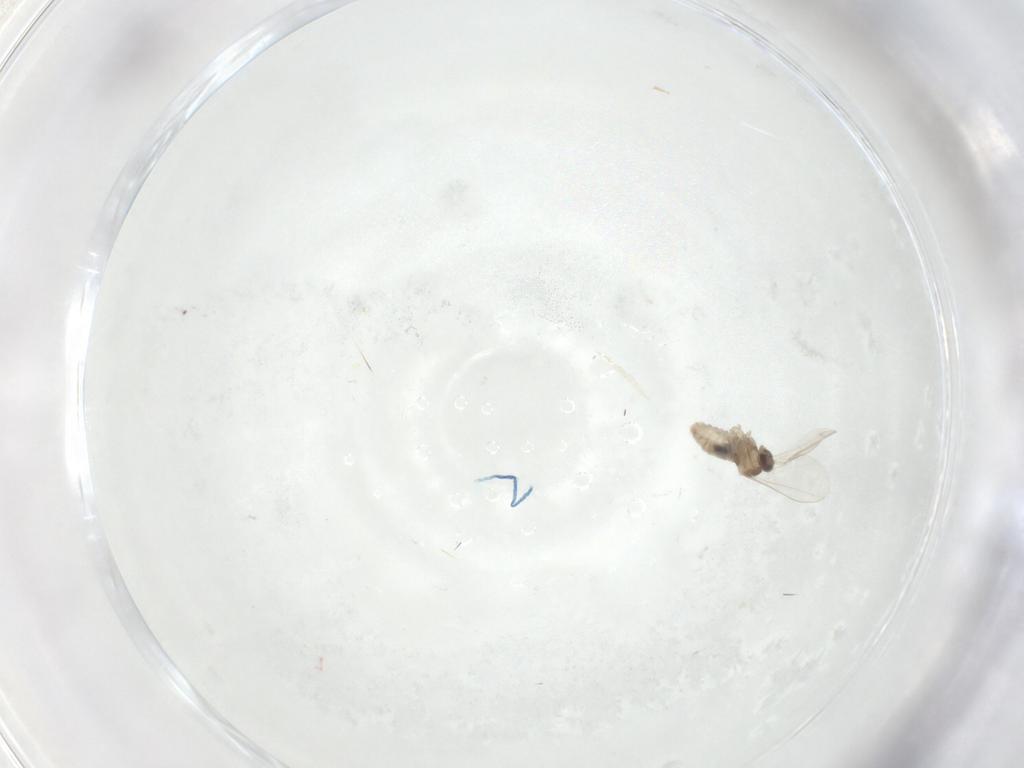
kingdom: Animalia
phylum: Arthropoda
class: Insecta
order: Diptera
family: Cecidomyiidae
